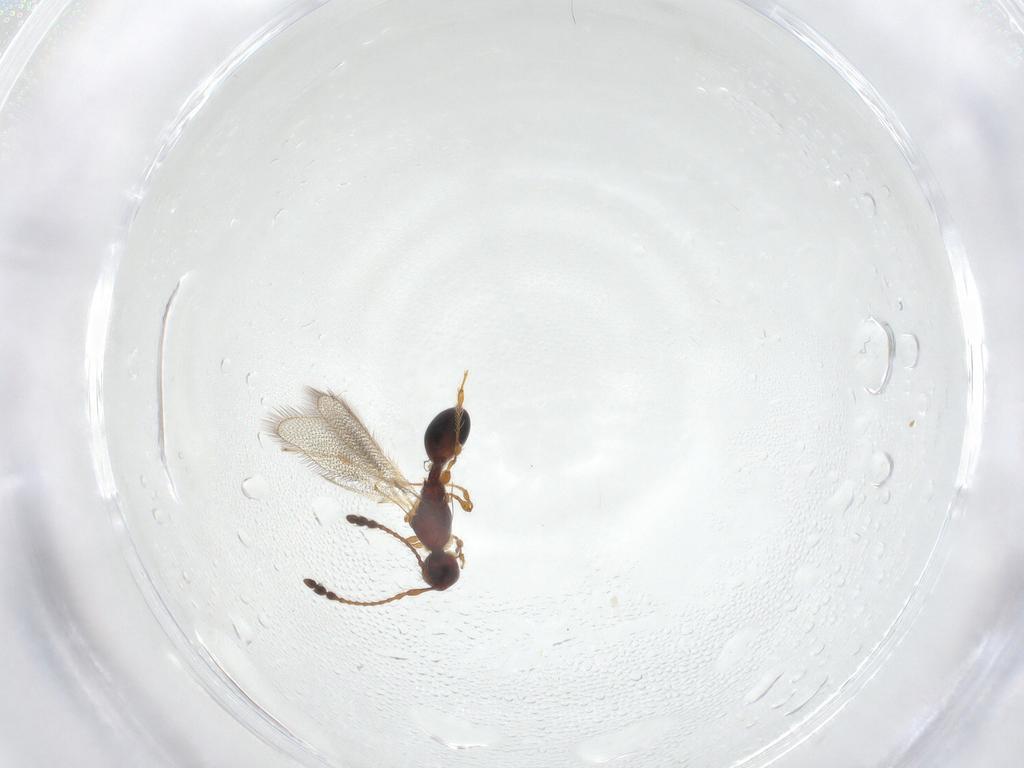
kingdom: Animalia
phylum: Arthropoda
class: Insecta
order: Hymenoptera
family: Diapriidae
